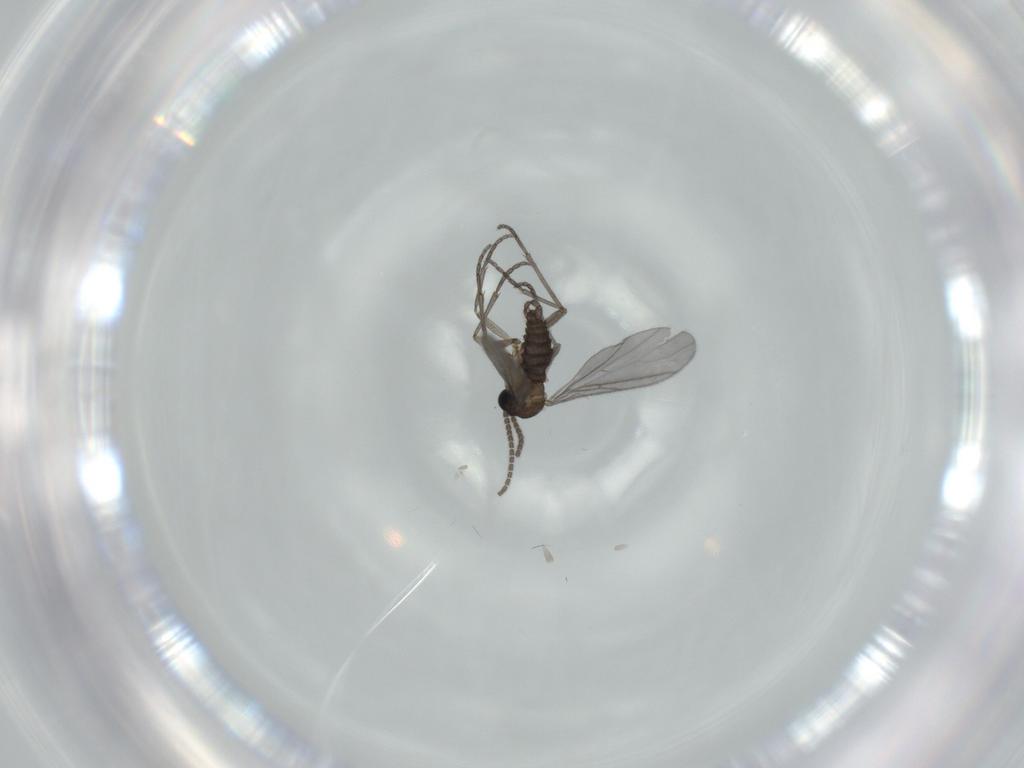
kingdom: Animalia
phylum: Arthropoda
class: Insecta
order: Diptera
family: Sciaridae
